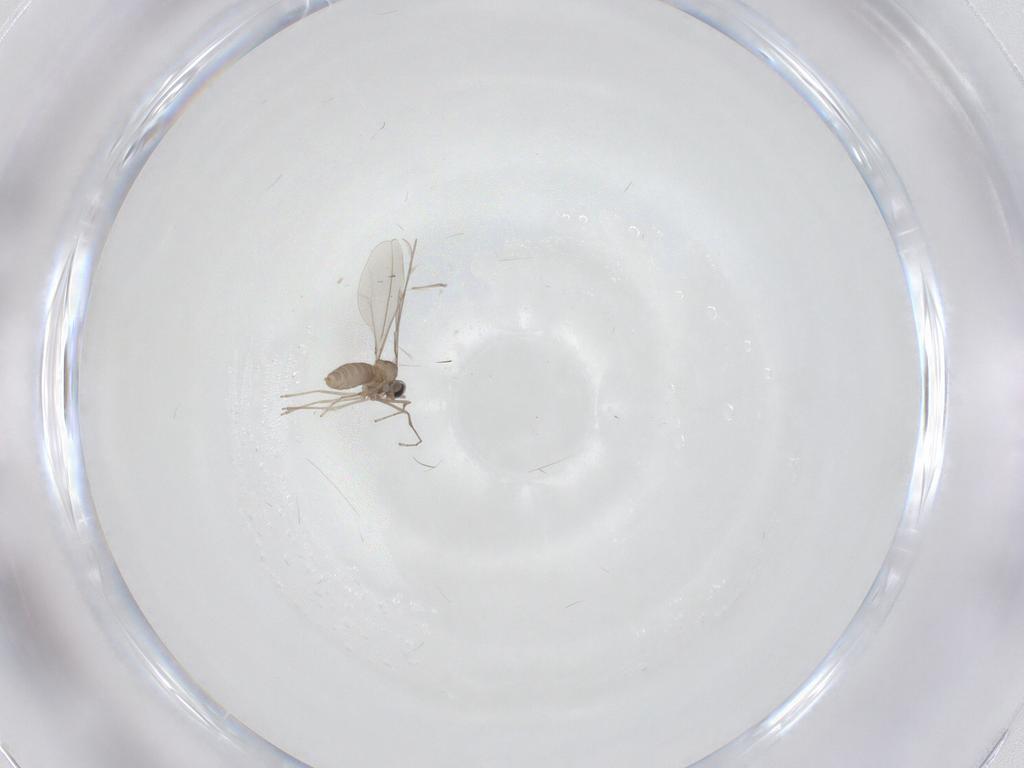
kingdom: Animalia
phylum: Arthropoda
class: Insecta
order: Diptera
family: Cecidomyiidae
